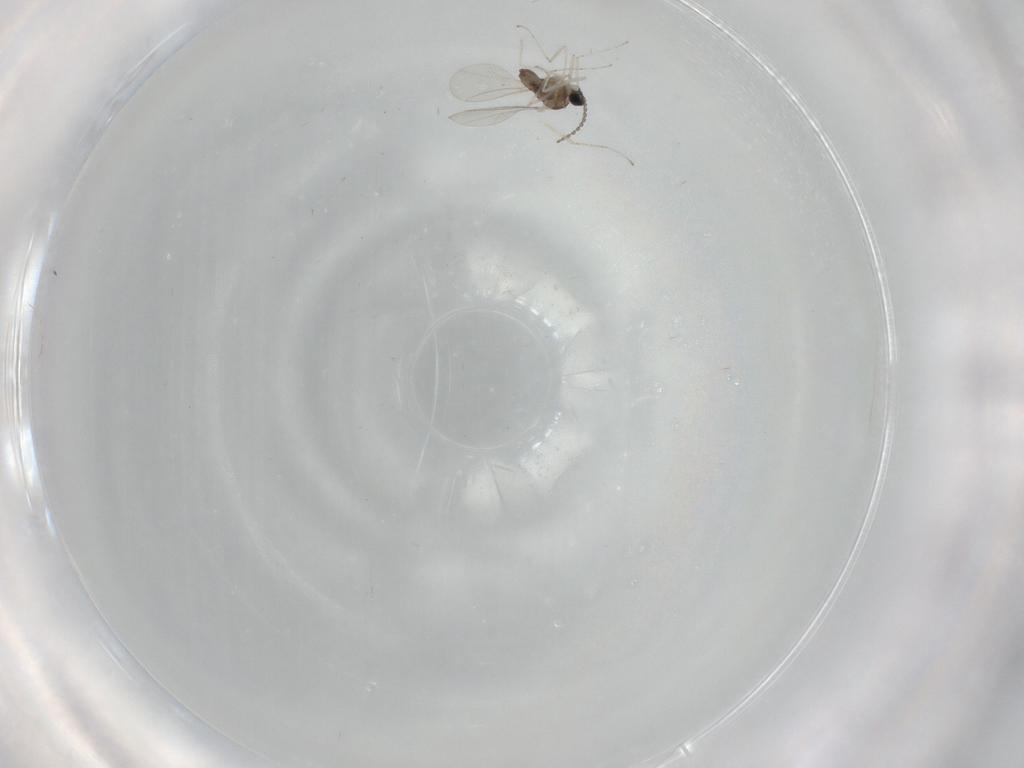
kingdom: Animalia
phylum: Arthropoda
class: Insecta
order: Diptera
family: Cecidomyiidae
